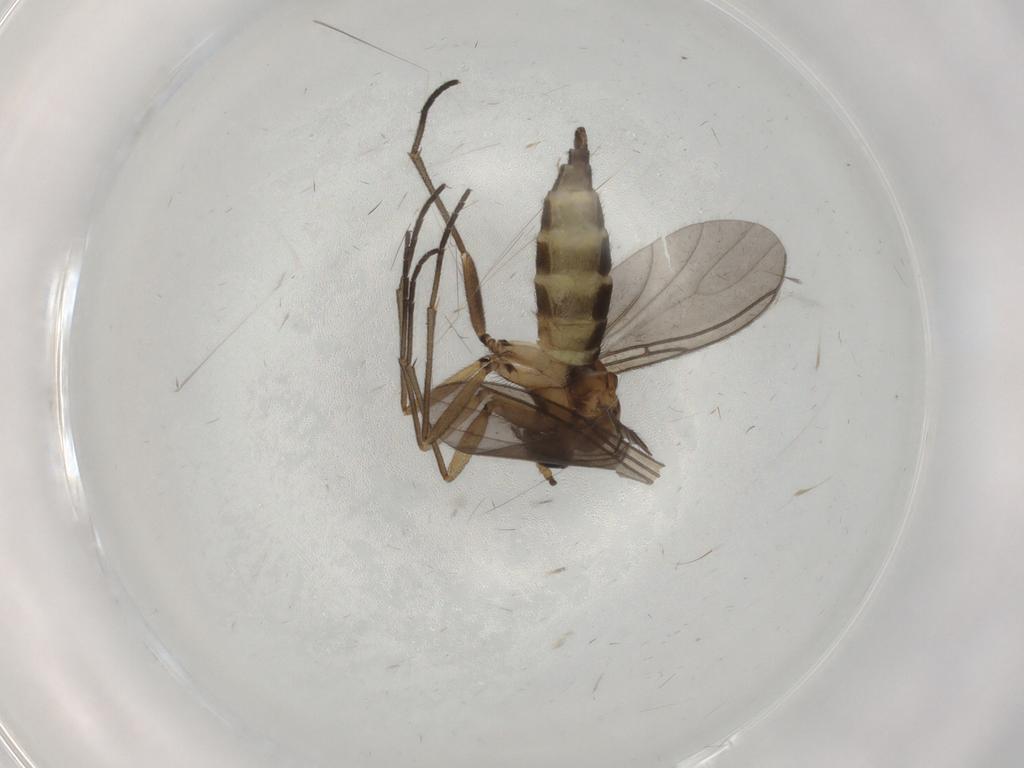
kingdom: Animalia
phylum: Arthropoda
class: Insecta
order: Diptera
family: Sciaridae
